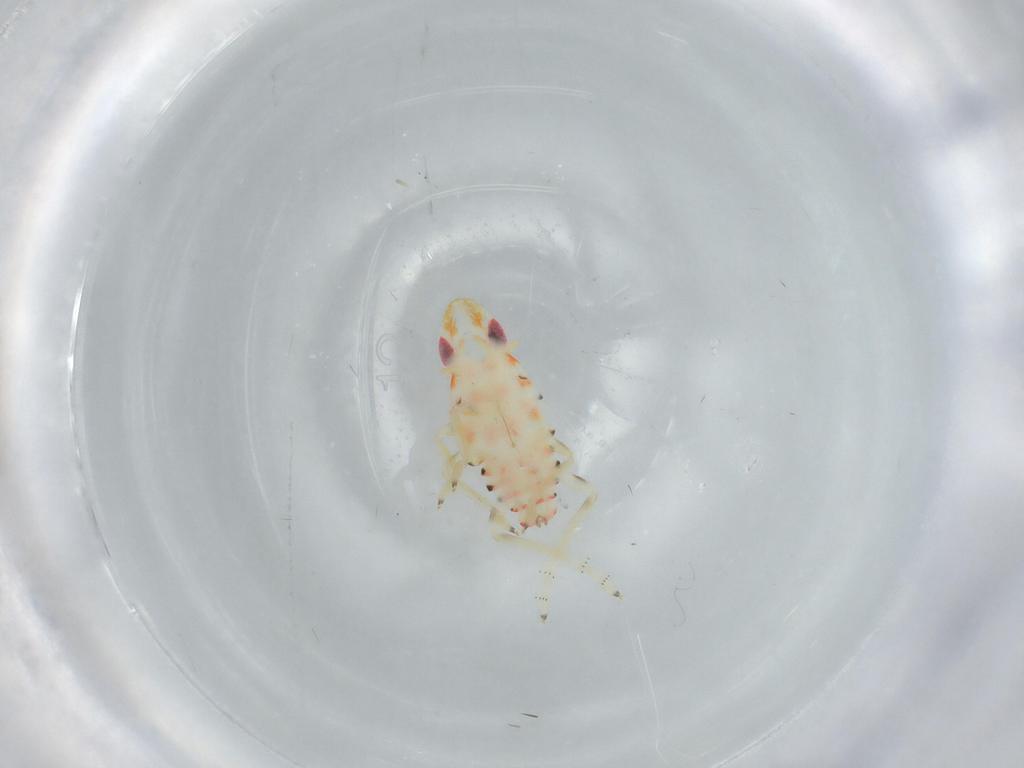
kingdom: Animalia
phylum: Arthropoda
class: Insecta
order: Hemiptera
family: Tropiduchidae
